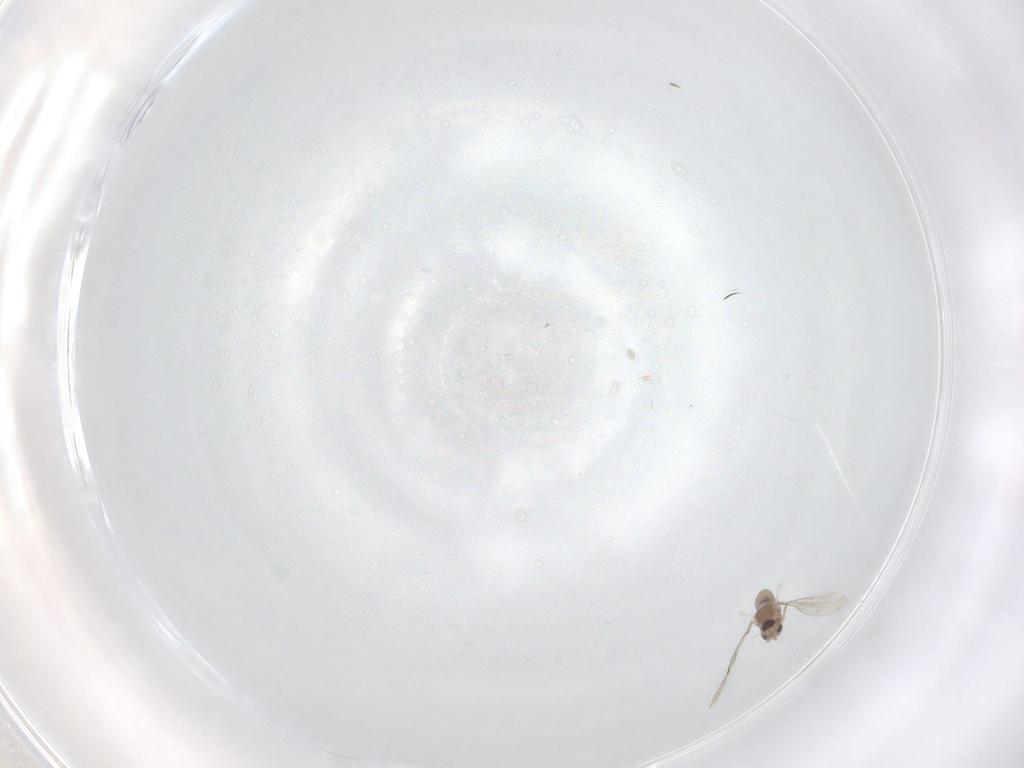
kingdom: Animalia
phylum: Arthropoda
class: Insecta
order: Diptera
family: Cecidomyiidae
